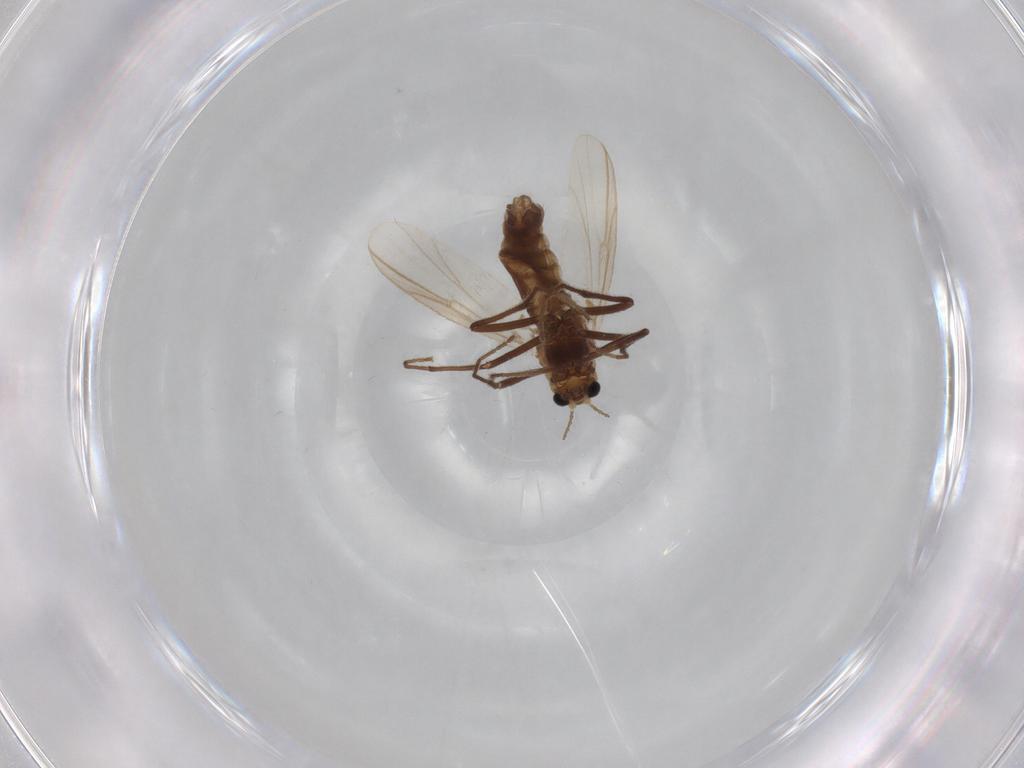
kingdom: Animalia
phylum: Arthropoda
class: Insecta
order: Diptera
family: Chironomidae
